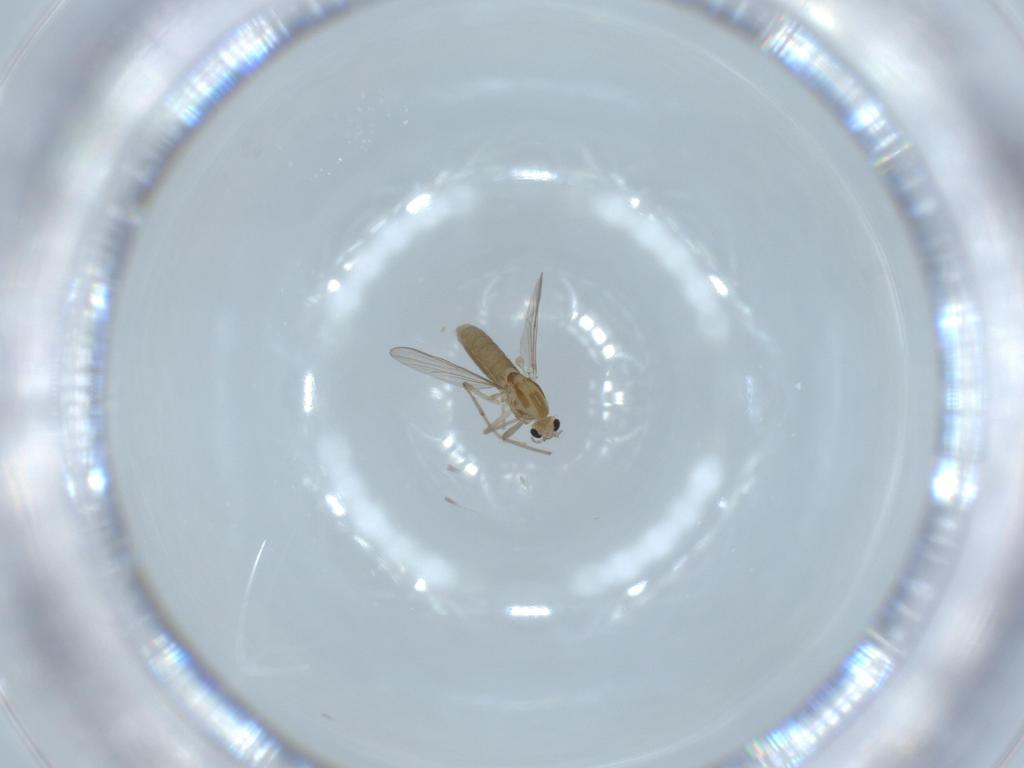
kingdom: Animalia
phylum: Arthropoda
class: Insecta
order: Diptera
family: Chironomidae
